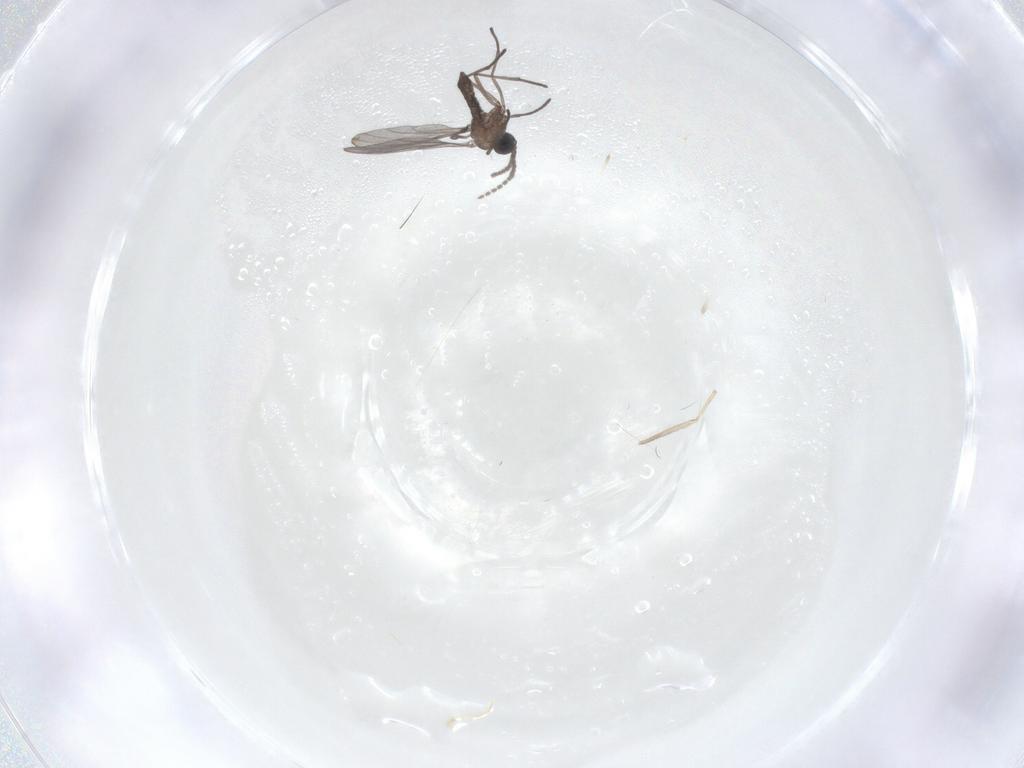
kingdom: Animalia
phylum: Arthropoda
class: Insecta
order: Diptera
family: Chironomidae
